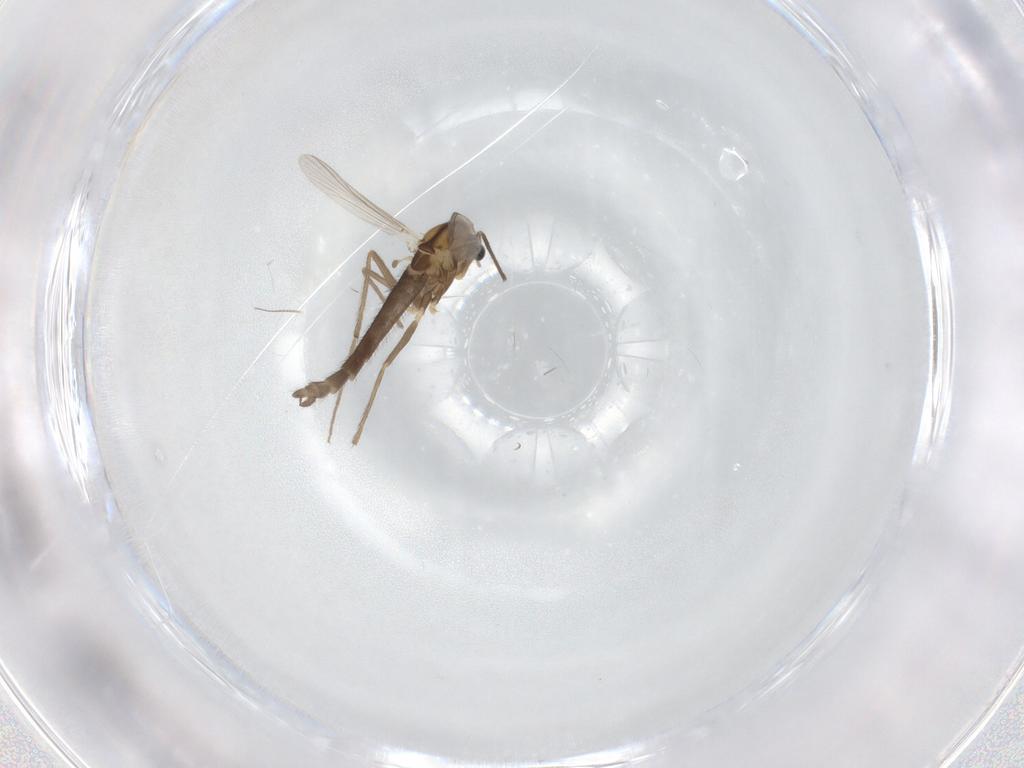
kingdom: Animalia
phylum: Arthropoda
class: Insecta
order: Diptera
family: Chironomidae
